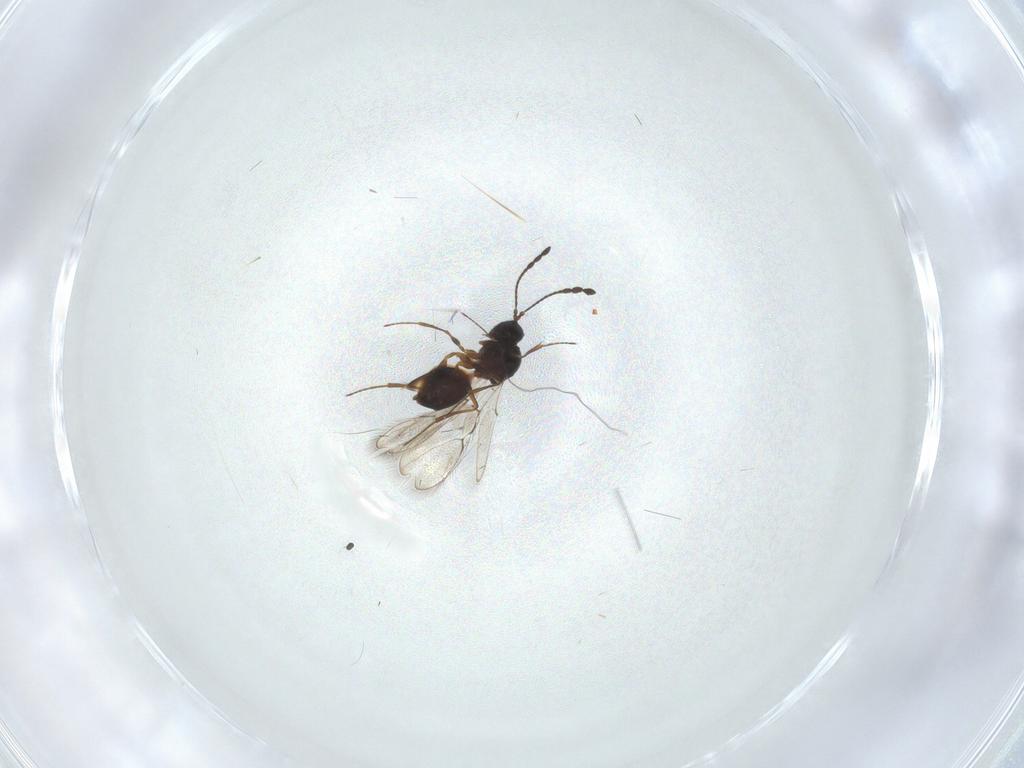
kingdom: Animalia
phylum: Arthropoda
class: Insecta
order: Hymenoptera
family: Figitidae
